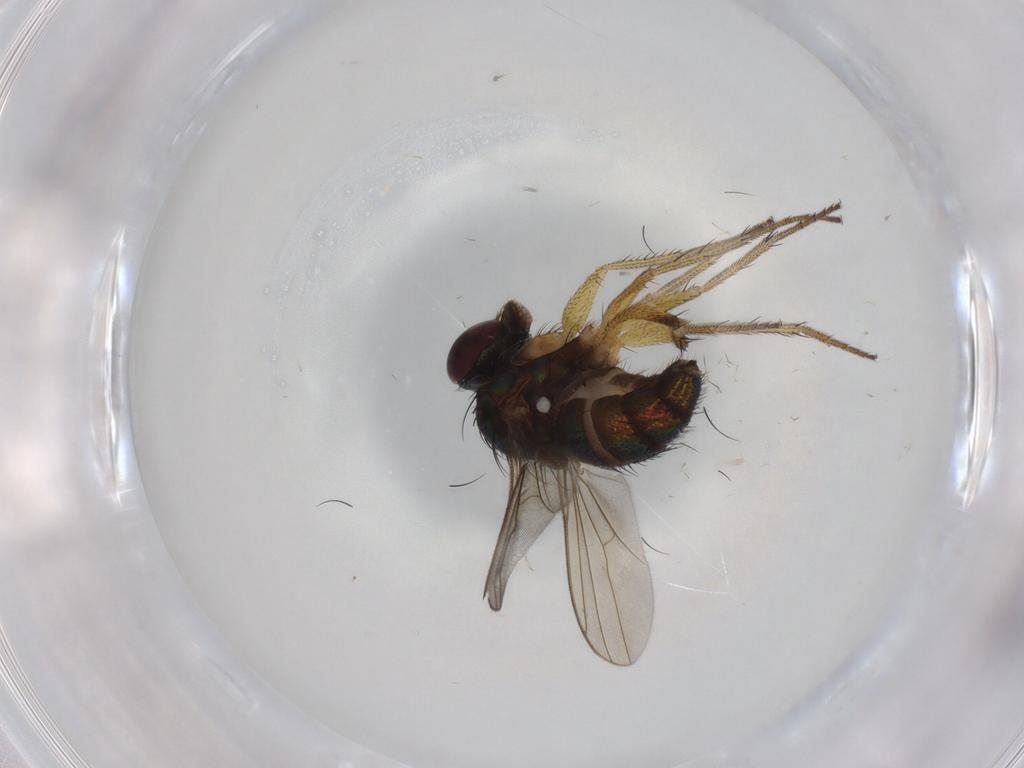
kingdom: Animalia
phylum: Arthropoda
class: Insecta
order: Diptera
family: Dolichopodidae
